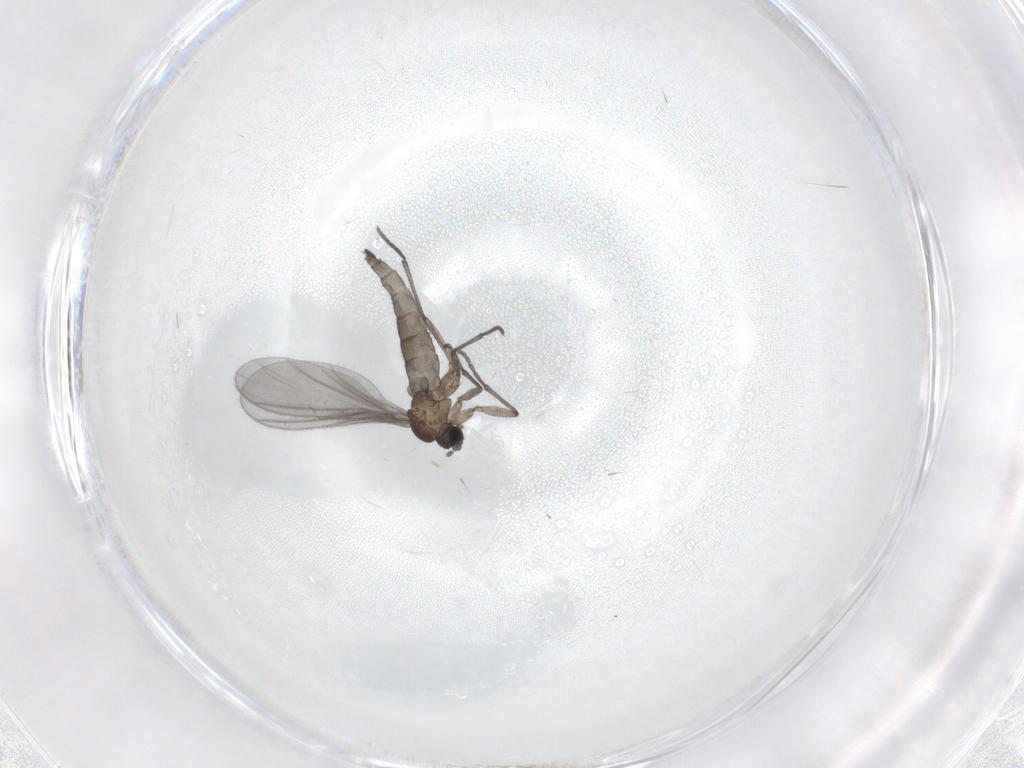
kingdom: Animalia
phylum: Arthropoda
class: Insecta
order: Diptera
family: Sciaridae
